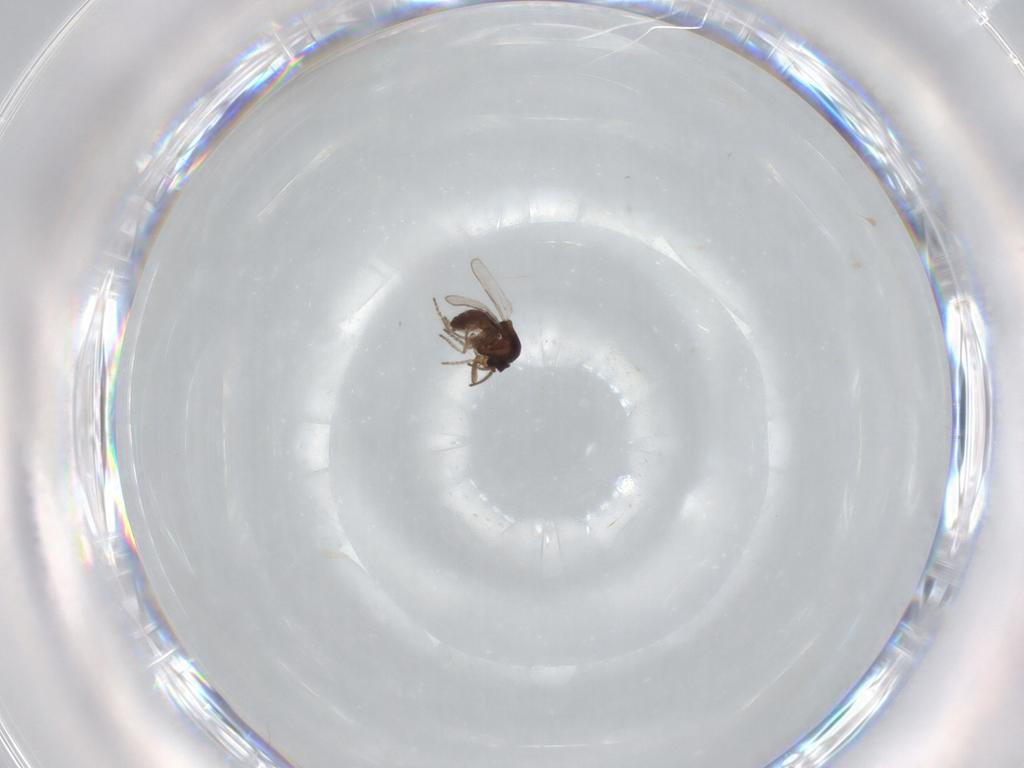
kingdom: Animalia
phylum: Arthropoda
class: Insecta
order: Diptera
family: Ceratopogonidae
